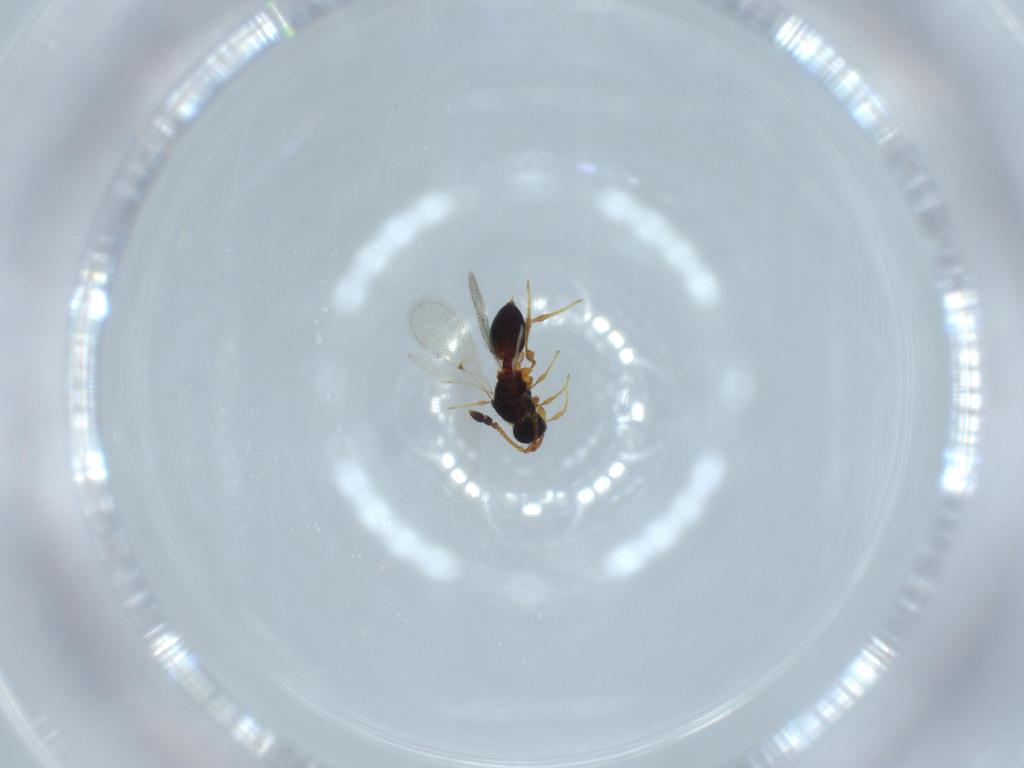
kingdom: Animalia
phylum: Arthropoda
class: Insecta
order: Hymenoptera
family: Diapriidae
